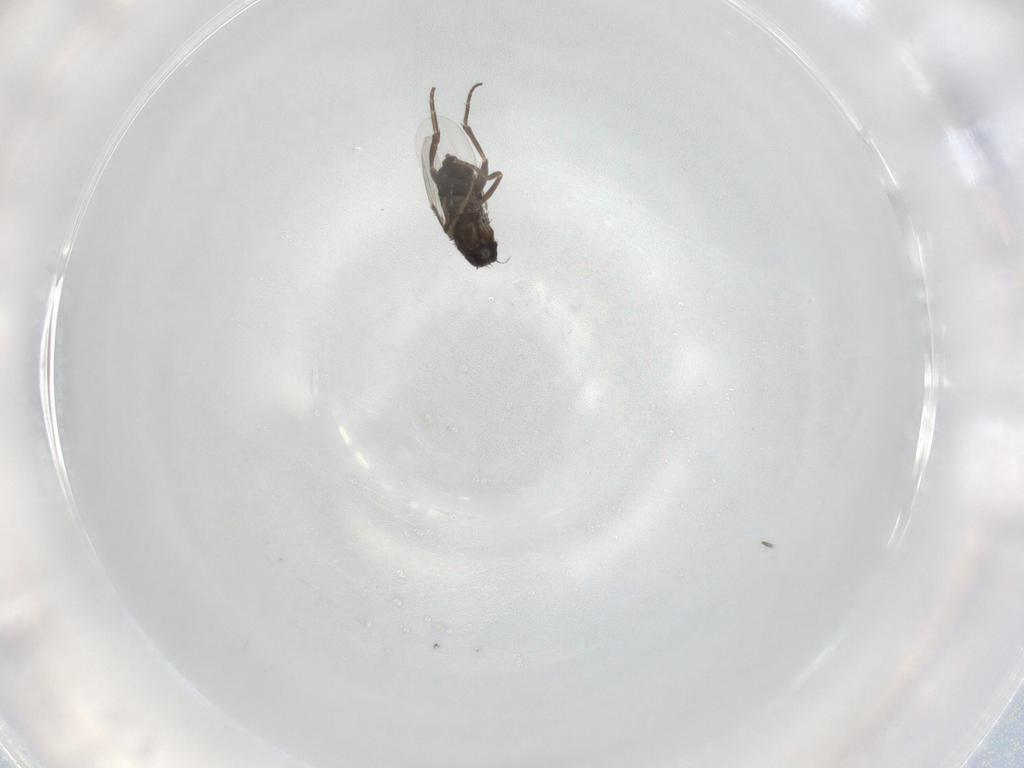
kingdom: Animalia
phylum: Arthropoda
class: Insecta
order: Diptera
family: Phoridae
